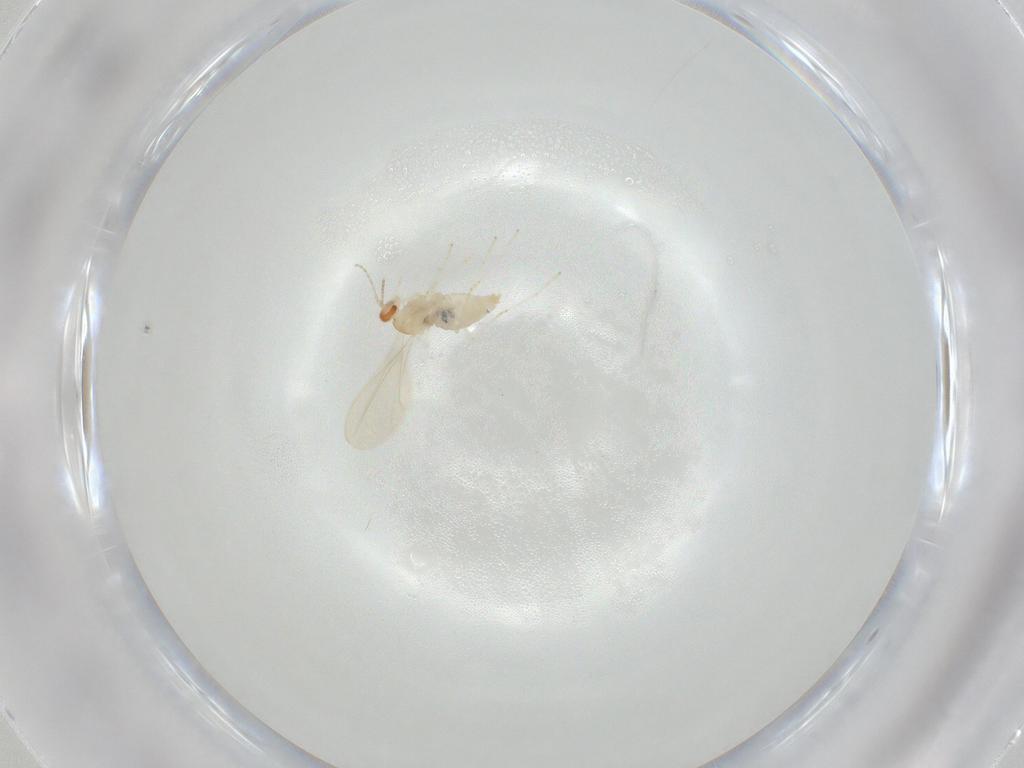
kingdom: Animalia
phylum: Arthropoda
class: Insecta
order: Diptera
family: Cecidomyiidae
